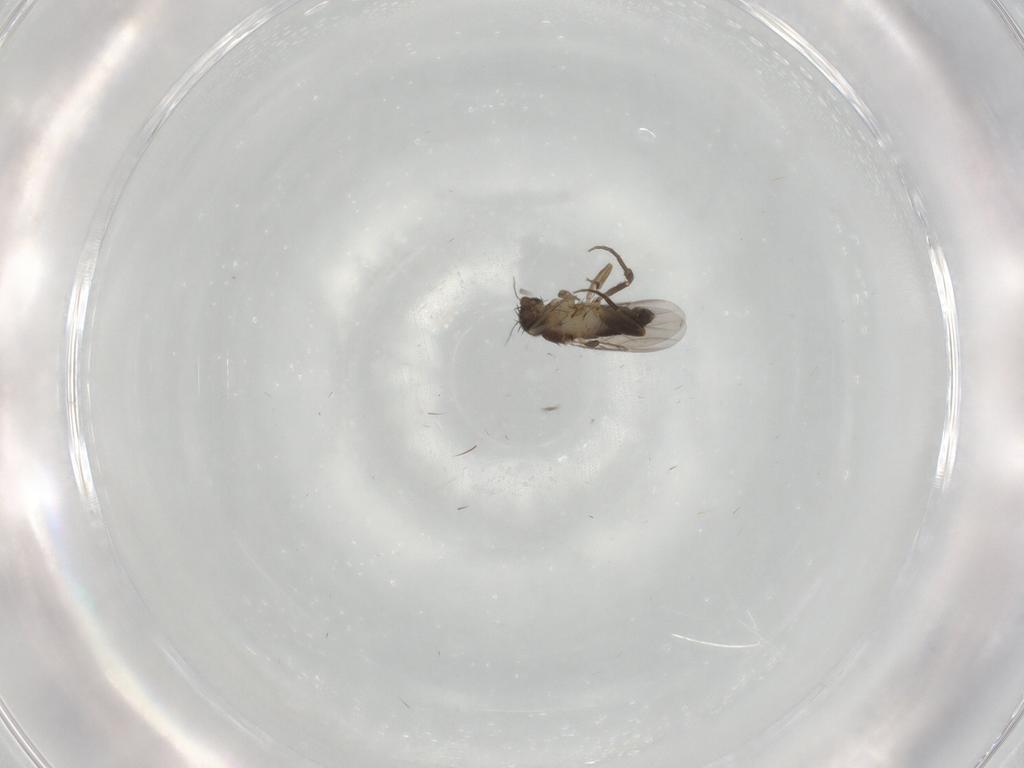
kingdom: Animalia
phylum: Arthropoda
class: Insecta
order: Diptera
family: Phoridae
